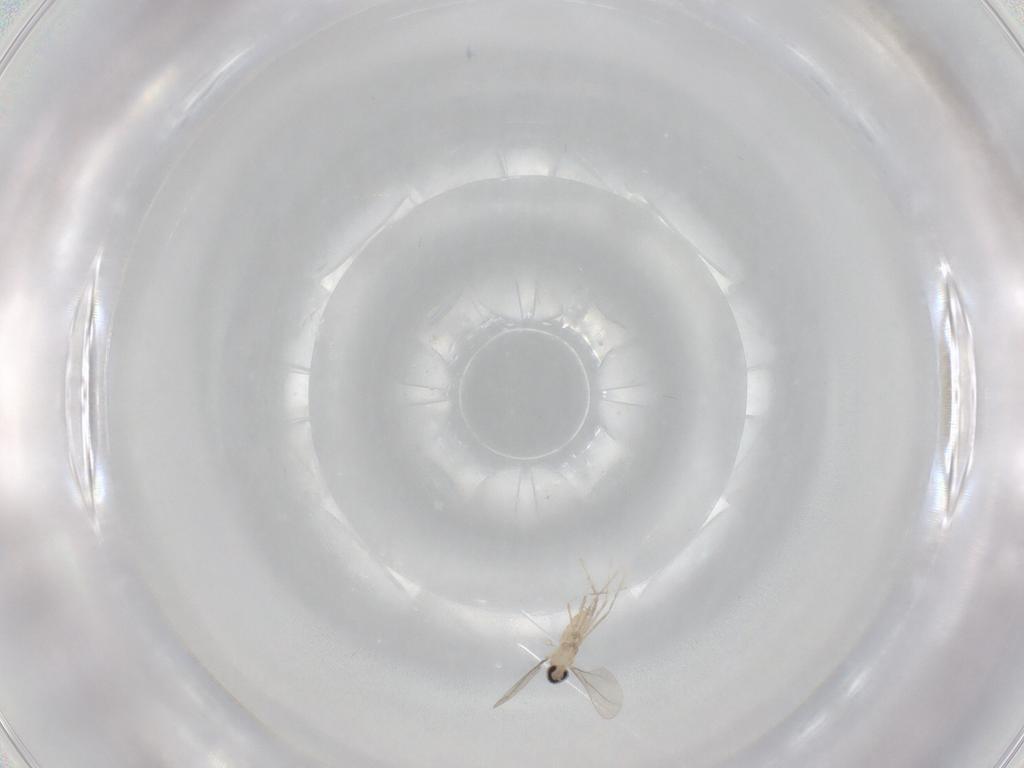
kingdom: Animalia
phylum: Arthropoda
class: Insecta
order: Diptera
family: Cecidomyiidae
